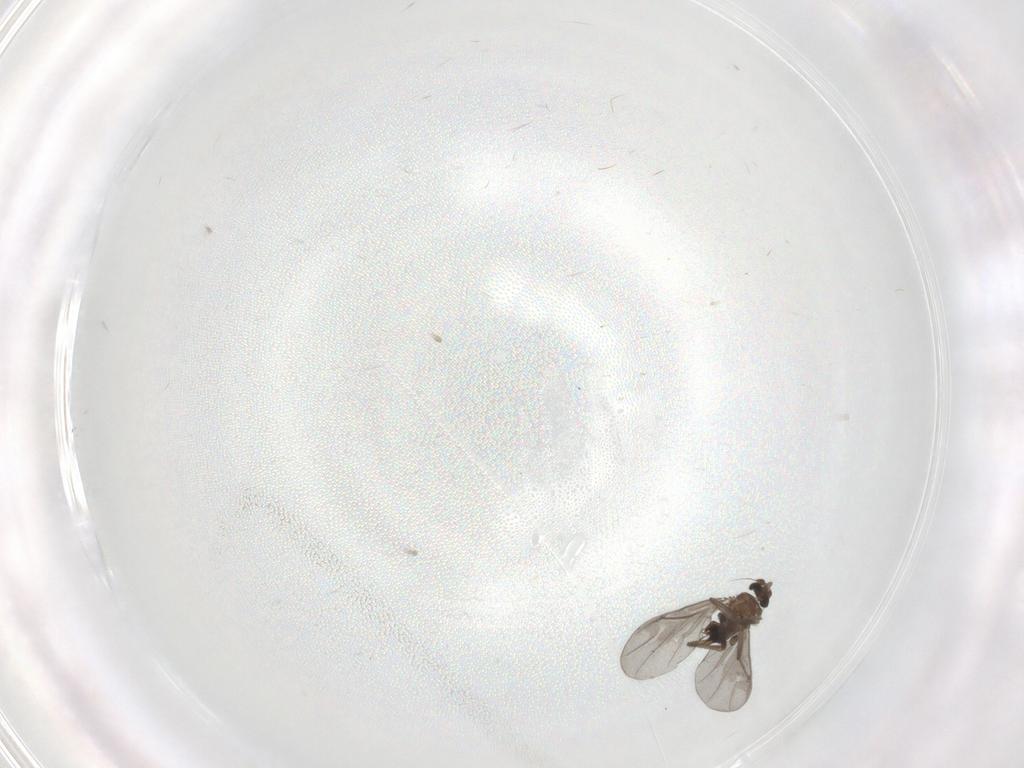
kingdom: Animalia
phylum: Arthropoda
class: Insecta
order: Diptera
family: Phoridae
